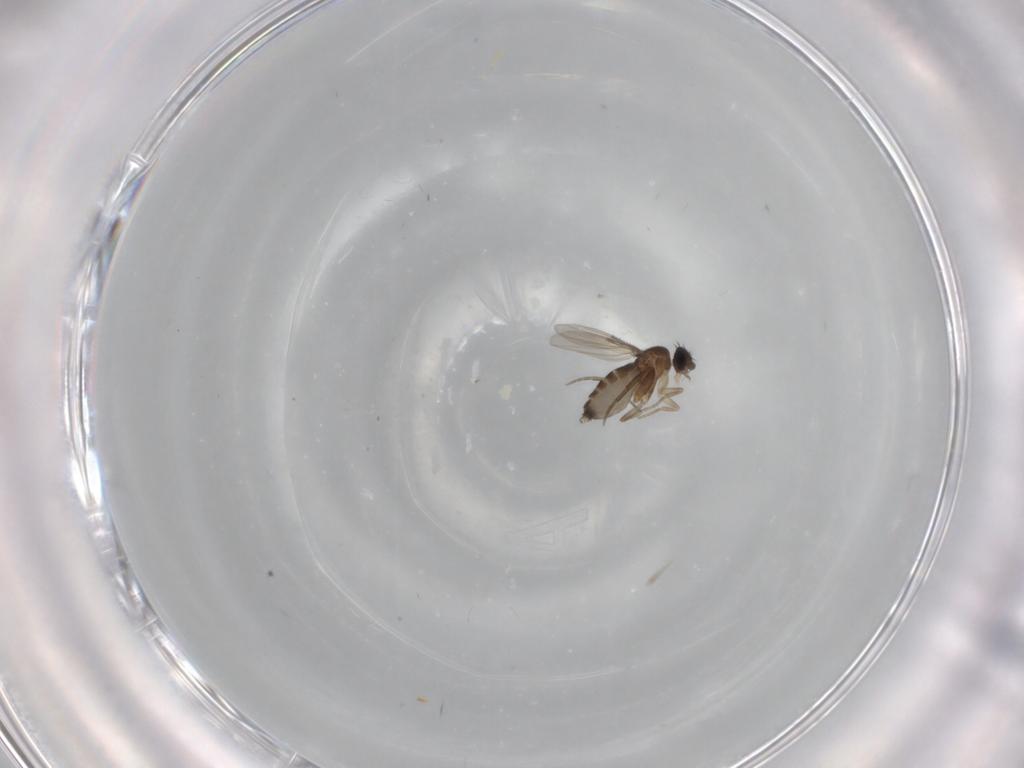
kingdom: Animalia
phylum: Arthropoda
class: Insecta
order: Diptera
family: Phoridae
